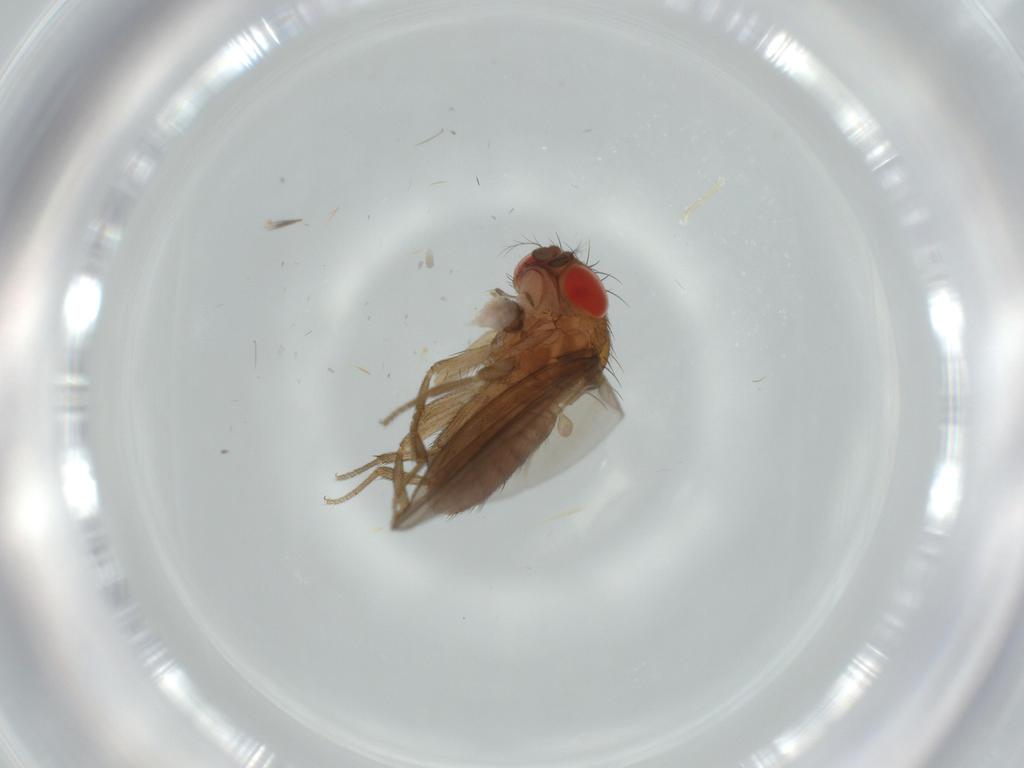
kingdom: Animalia
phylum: Arthropoda
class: Insecta
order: Diptera
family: Drosophilidae
